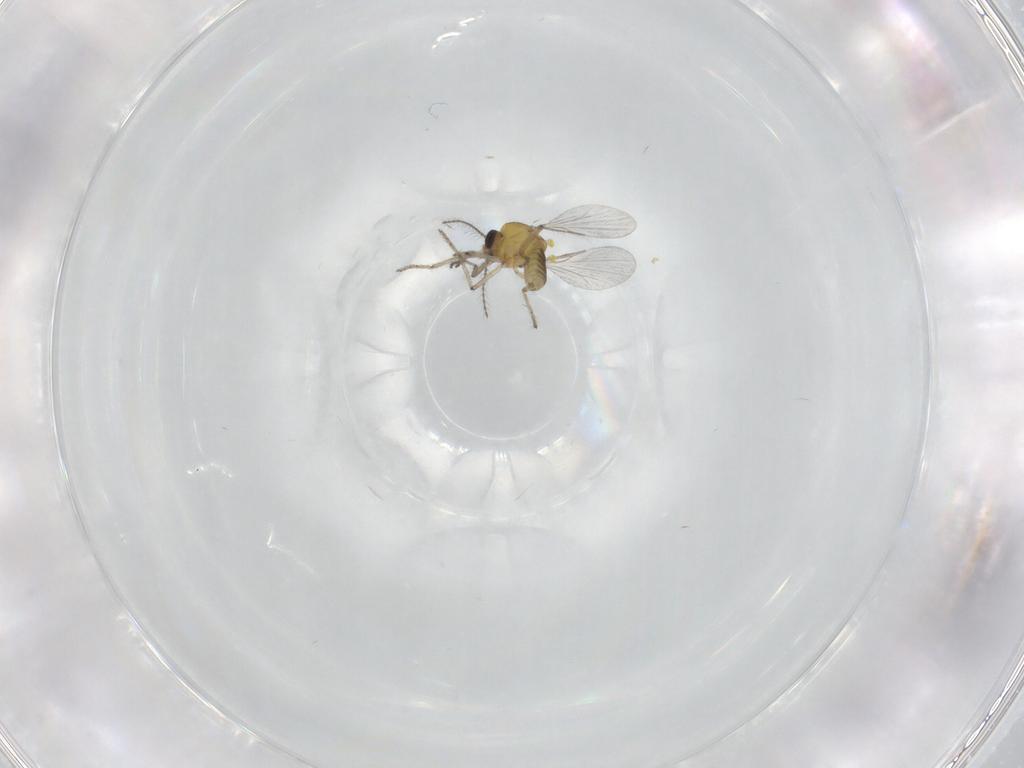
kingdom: Animalia
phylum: Arthropoda
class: Insecta
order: Diptera
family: Ceratopogonidae
